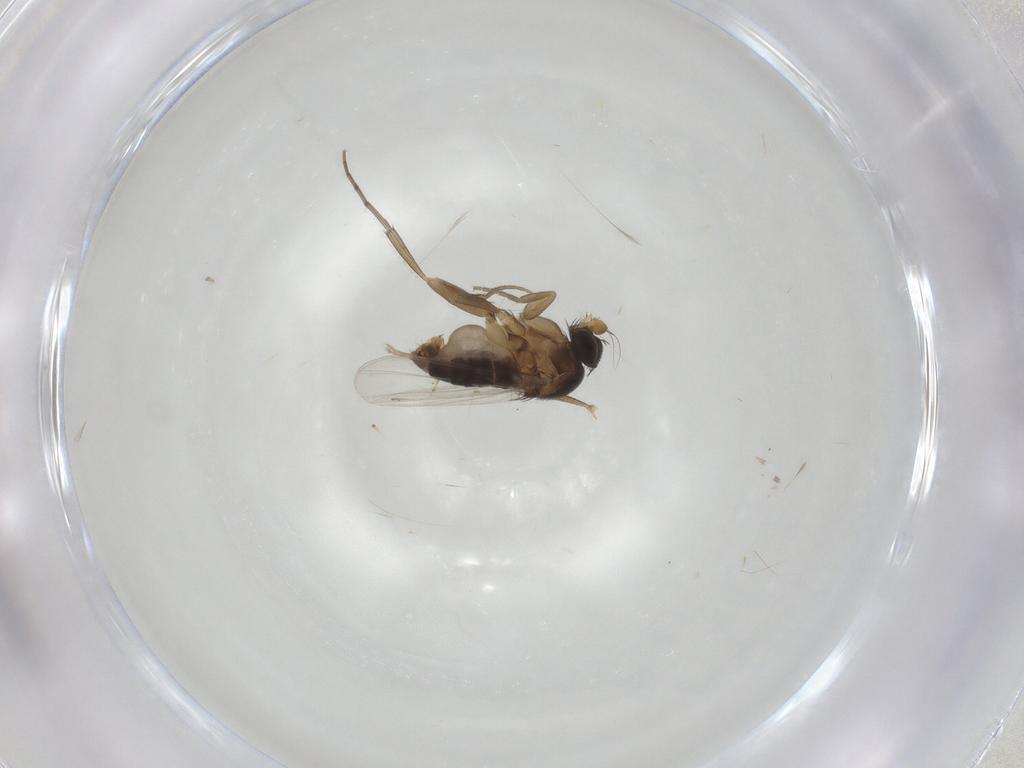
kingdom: Animalia
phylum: Arthropoda
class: Insecta
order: Diptera
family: Phoridae
